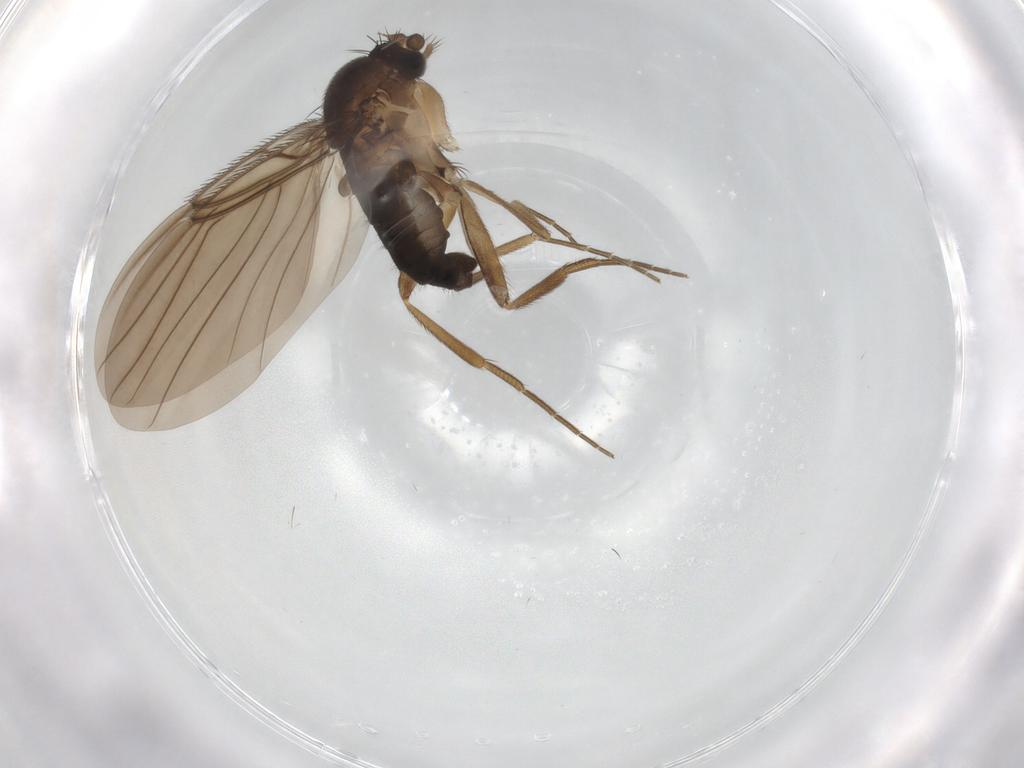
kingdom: Animalia
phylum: Arthropoda
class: Insecta
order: Diptera
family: Phoridae
